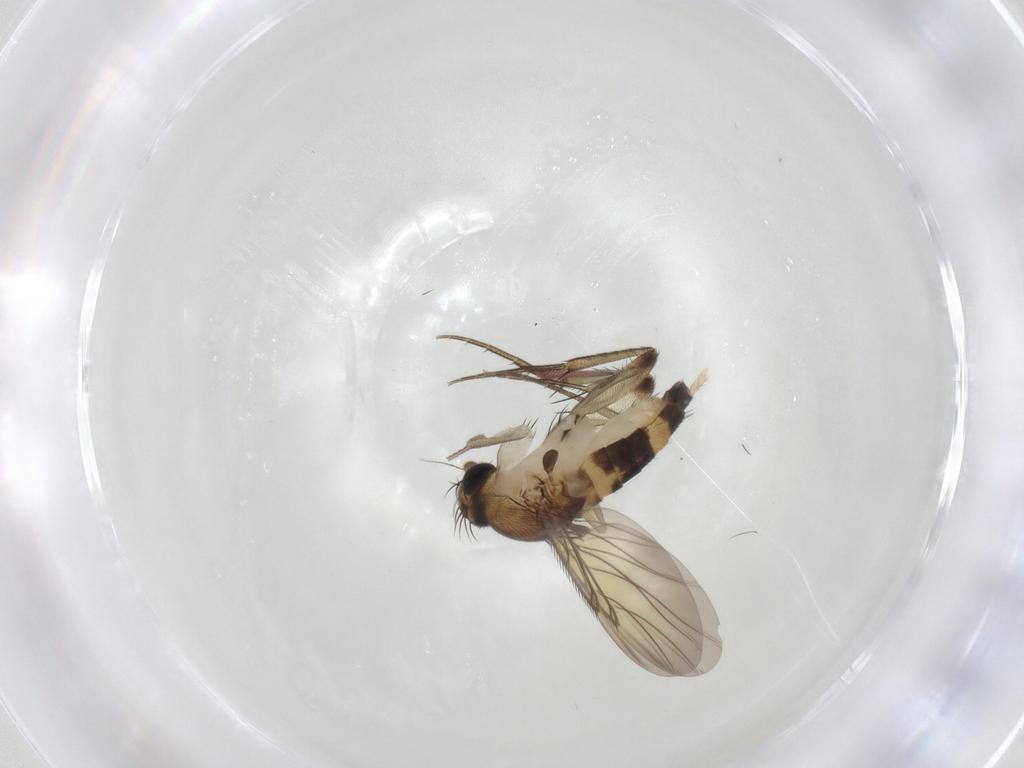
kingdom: Animalia
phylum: Arthropoda
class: Insecta
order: Diptera
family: Phoridae
